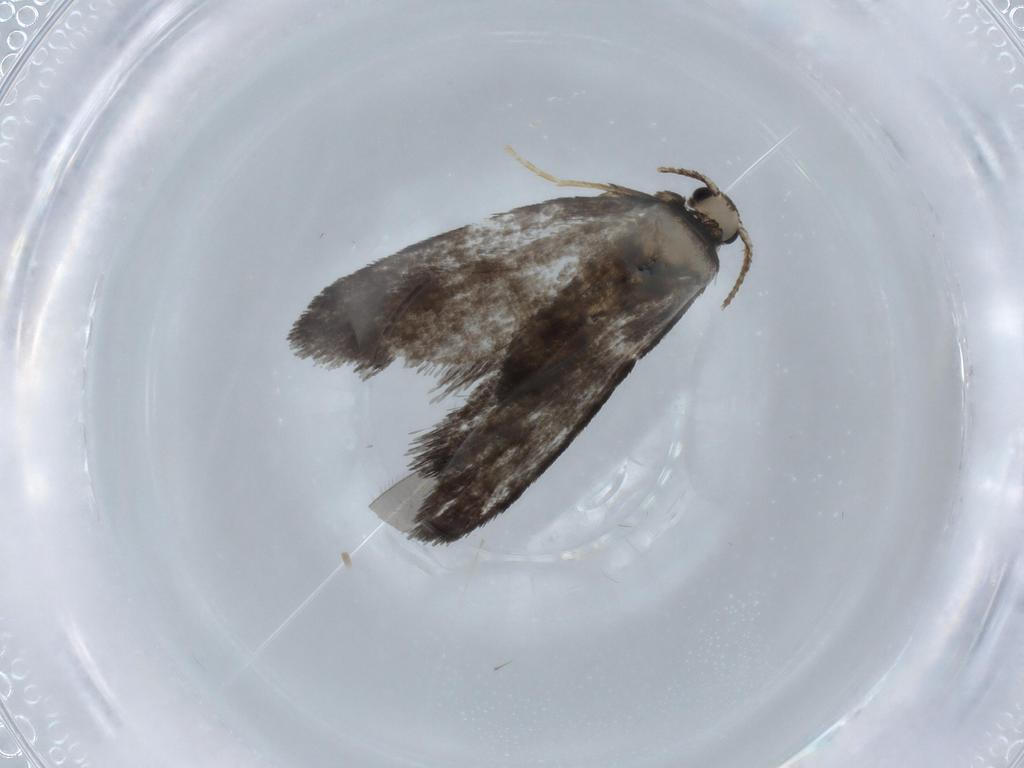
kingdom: Animalia
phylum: Arthropoda
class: Insecta
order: Lepidoptera
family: Psychidae
